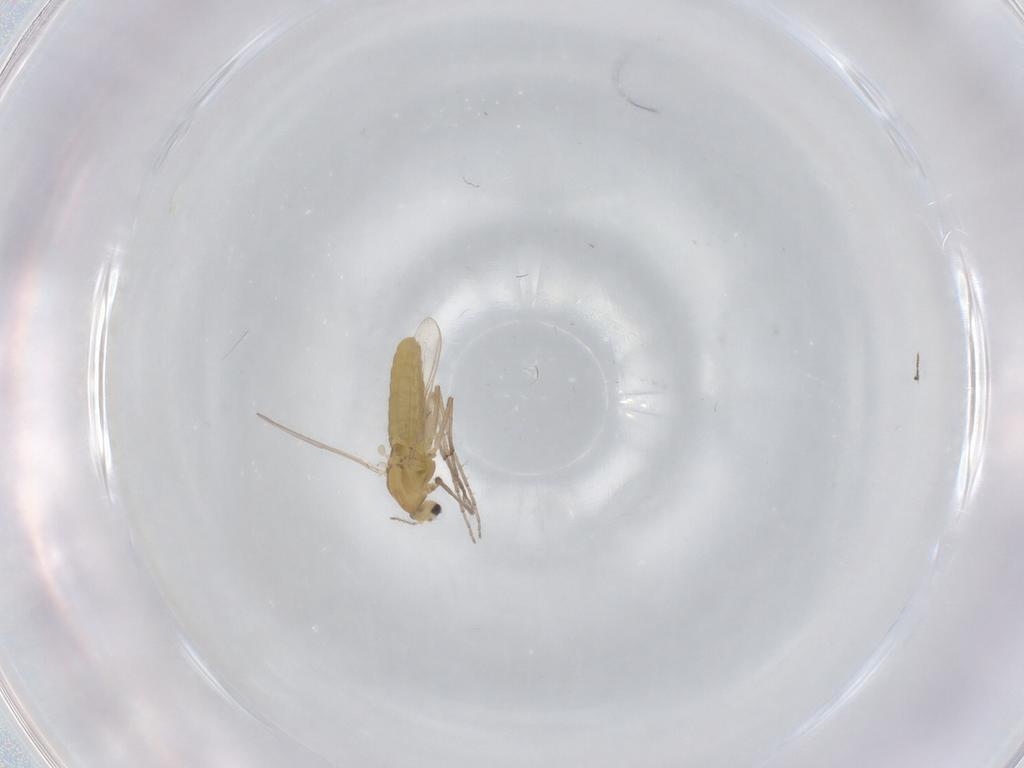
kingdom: Animalia
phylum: Arthropoda
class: Insecta
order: Diptera
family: Chironomidae
